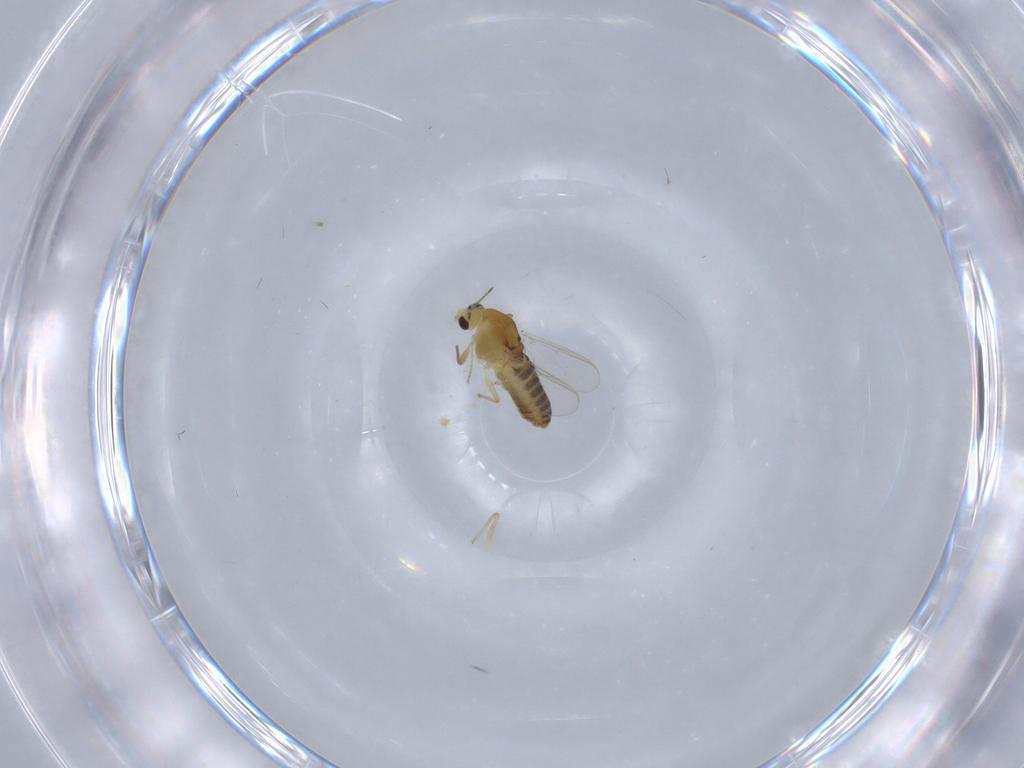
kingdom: Animalia
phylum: Arthropoda
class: Insecta
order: Diptera
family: Chironomidae
